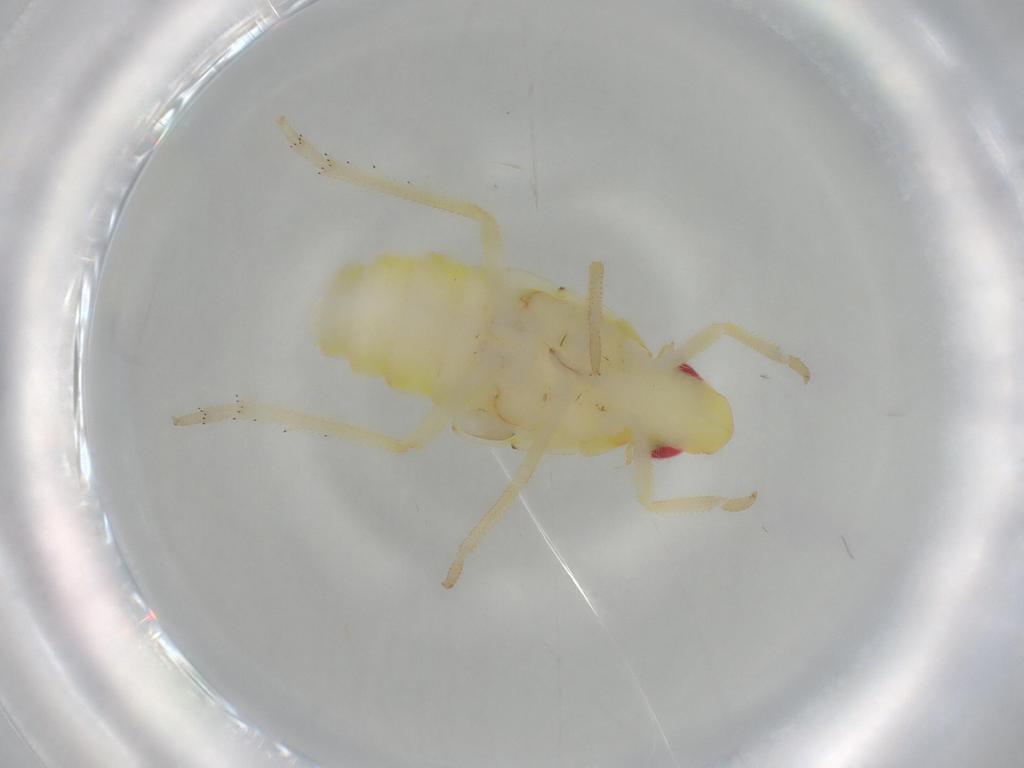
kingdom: Animalia
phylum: Arthropoda
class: Insecta
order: Hemiptera
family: Tropiduchidae
